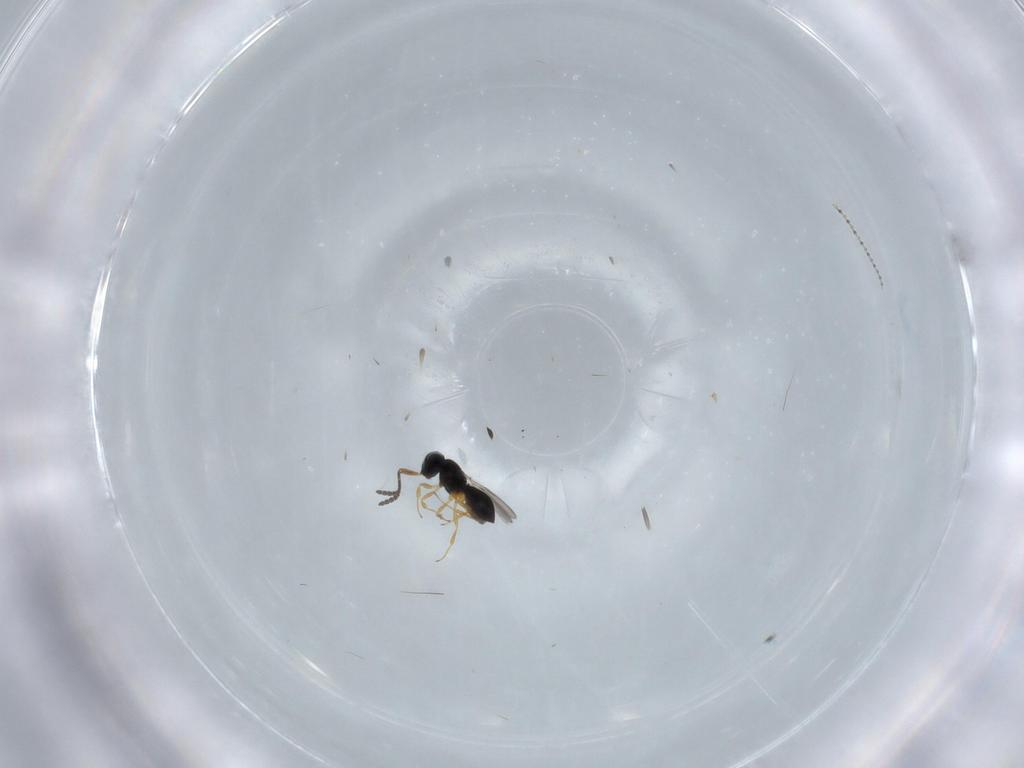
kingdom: Animalia
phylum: Arthropoda
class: Insecta
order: Hymenoptera
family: Scelionidae
